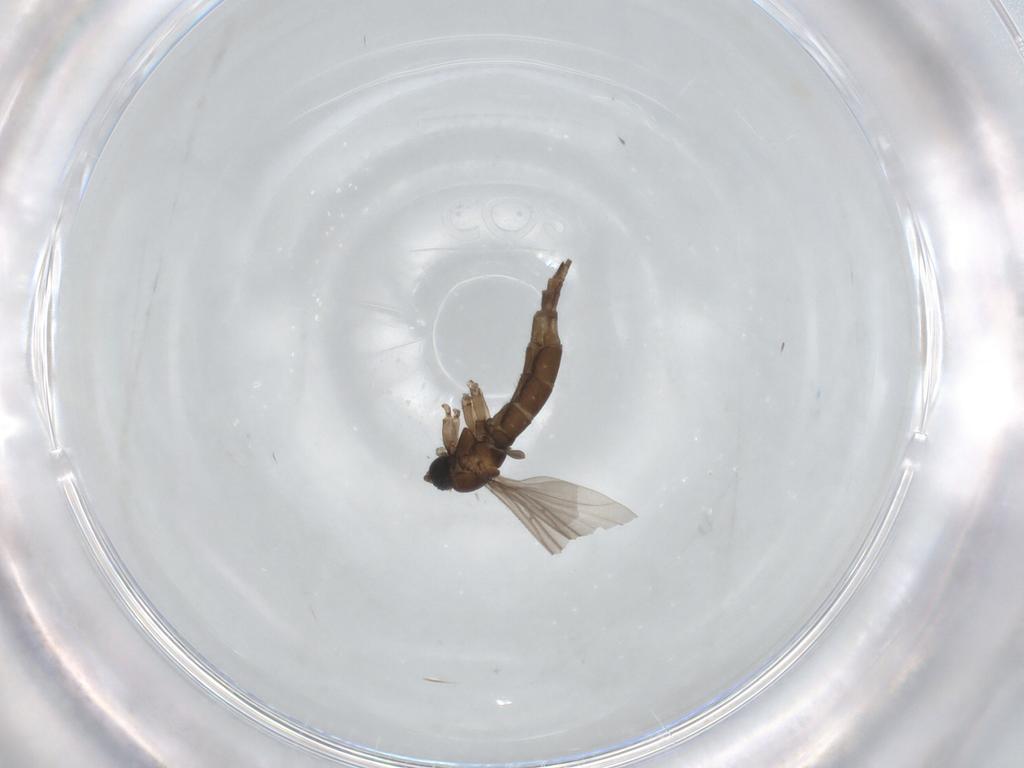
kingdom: Animalia
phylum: Arthropoda
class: Insecta
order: Diptera
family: Sciaridae
